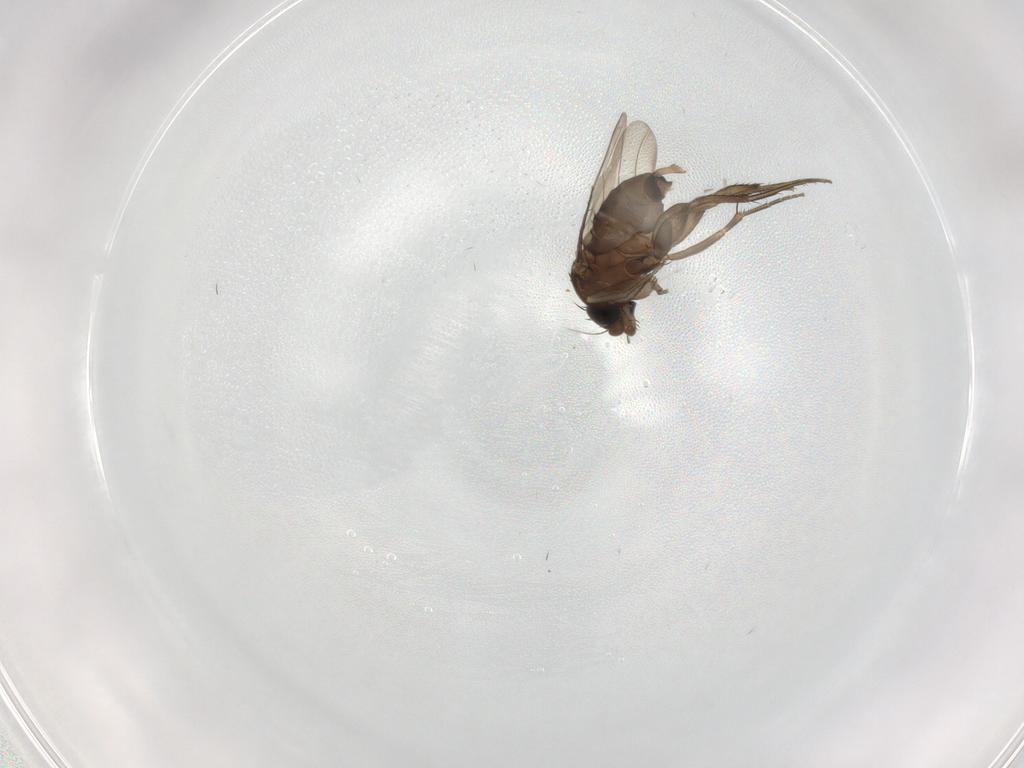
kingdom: Animalia
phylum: Arthropoda
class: Insecta
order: Diptera
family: Phoridae
